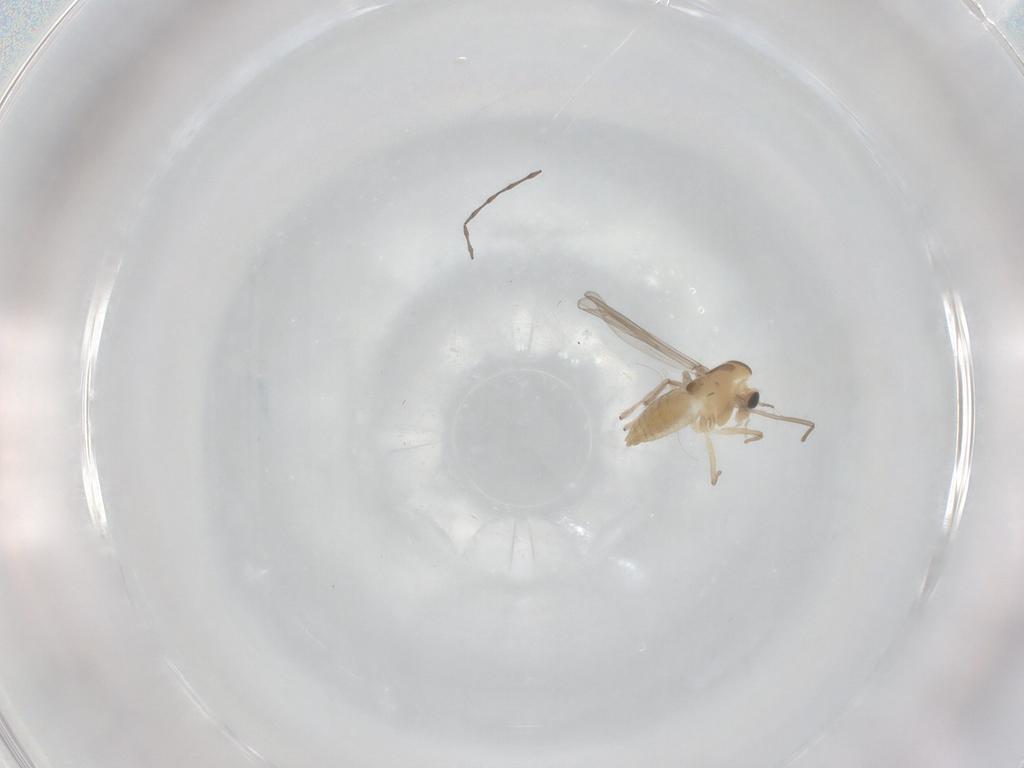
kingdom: Animalia
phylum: Arthropoda
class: Insecta
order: Diptera
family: Chironomidae
